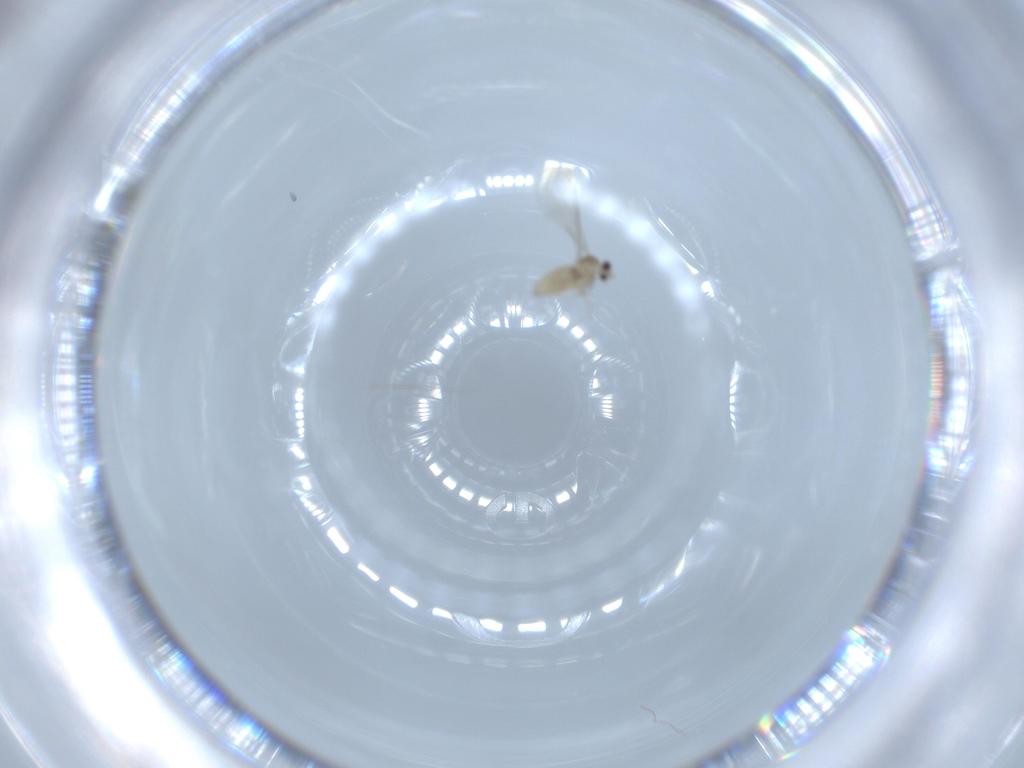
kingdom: Animalia
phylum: Arthropoda
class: Insecta
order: Diptera
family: Cecidomyiidae
